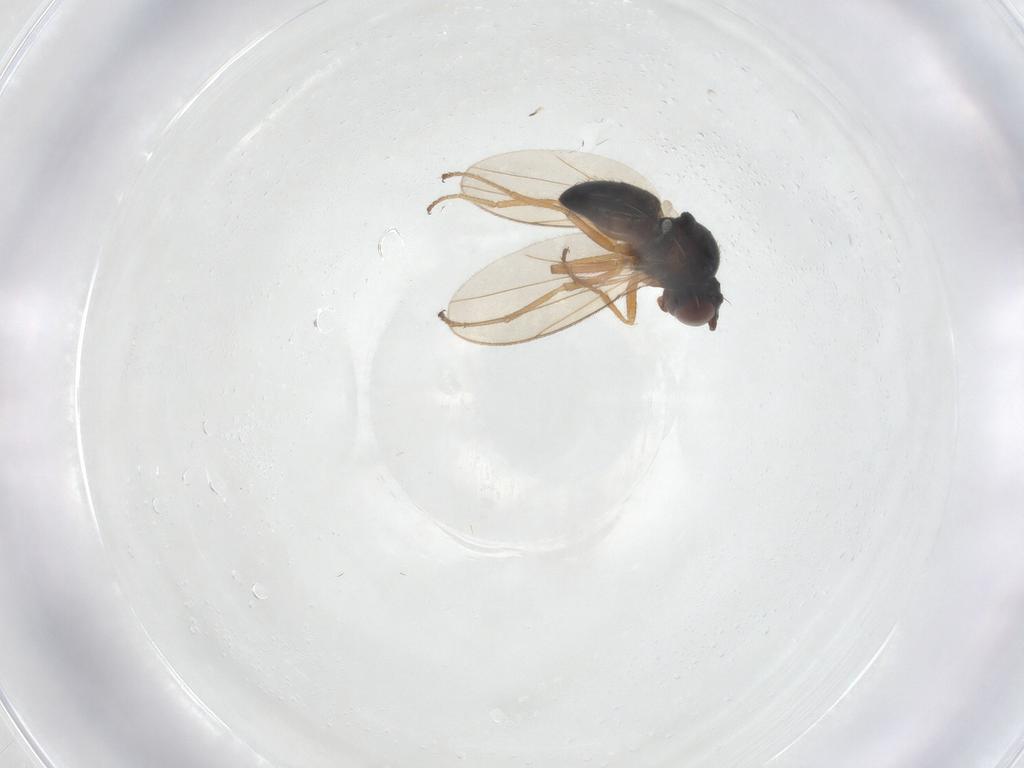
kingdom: Animalia
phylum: Arthropoda
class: Insecta
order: Diptera
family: Ephydridae
